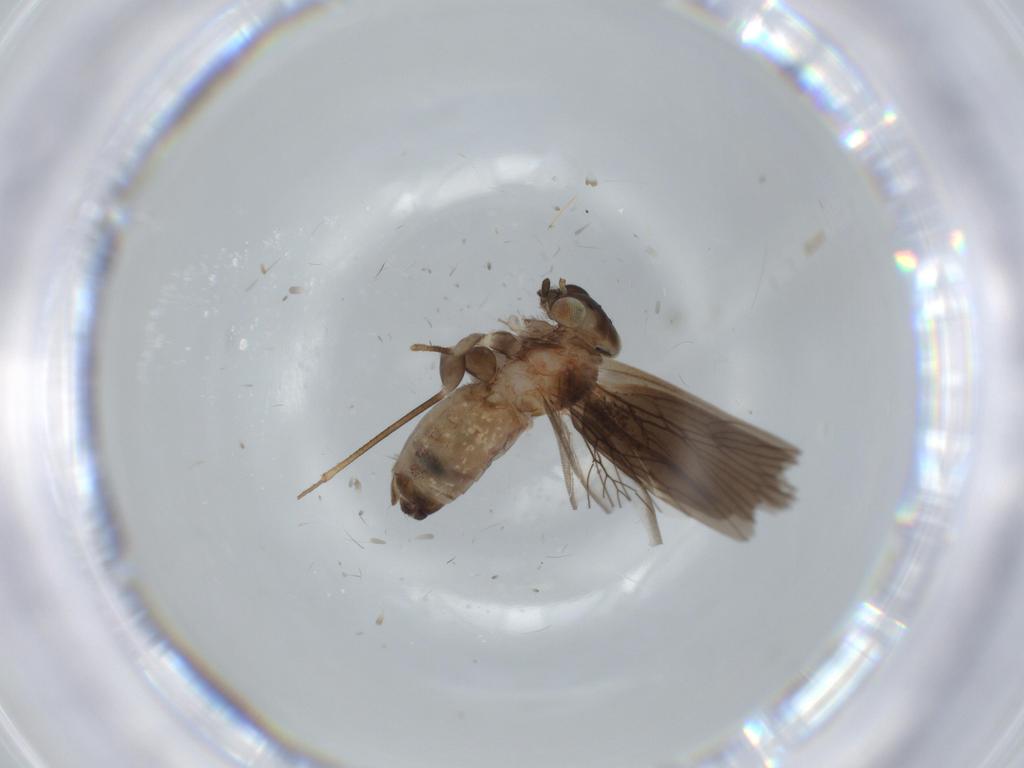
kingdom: Animalia
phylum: Arthropoda
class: Insecta
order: Psocodea
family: Lepidopsocidae
